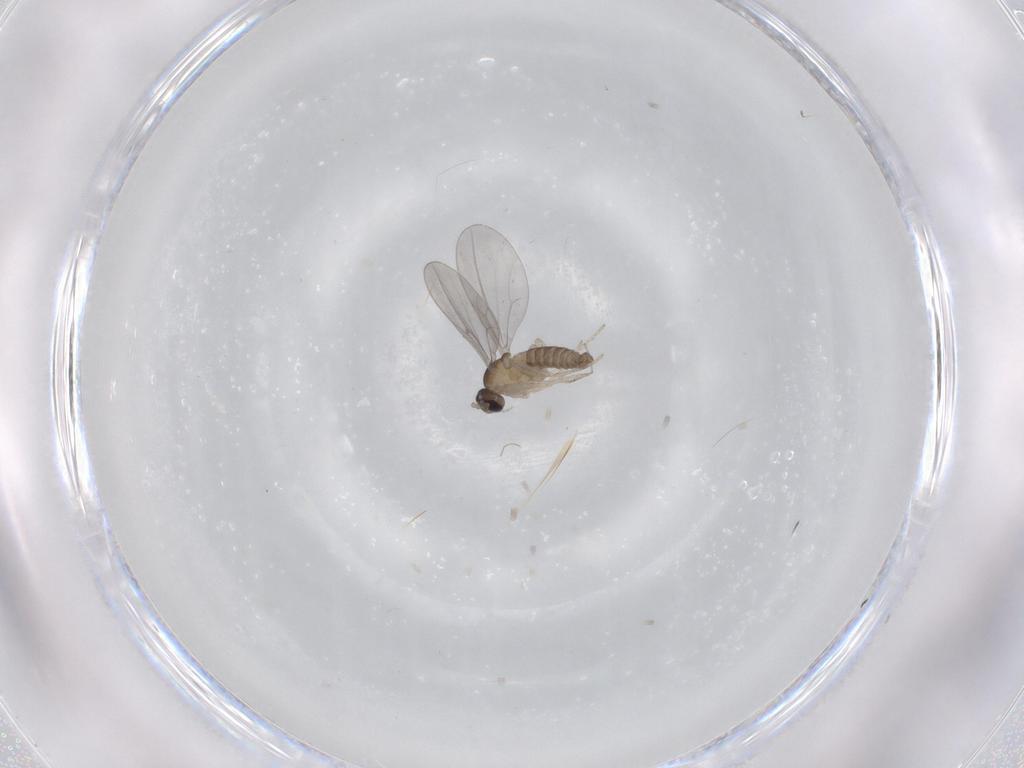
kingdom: Animalia
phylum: Arthropoda
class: Insecta
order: Diptera
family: Cecidomyiidae
